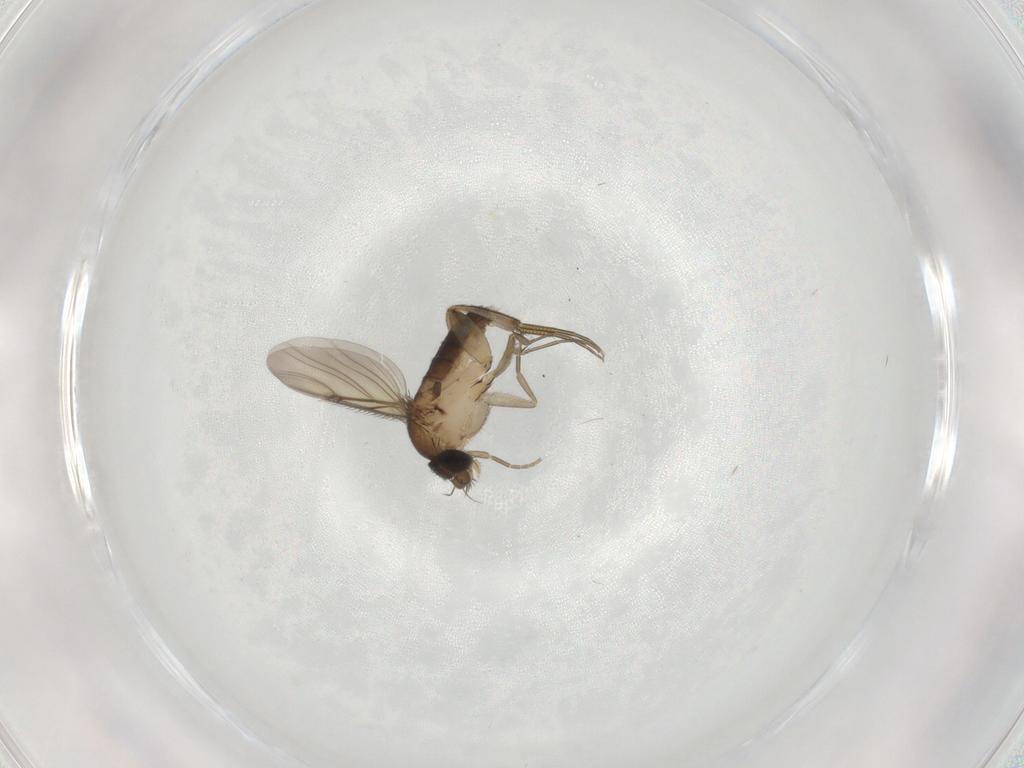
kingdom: Animalia
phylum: Arthropoda
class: Insecta
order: Diptera
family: Phoridae
